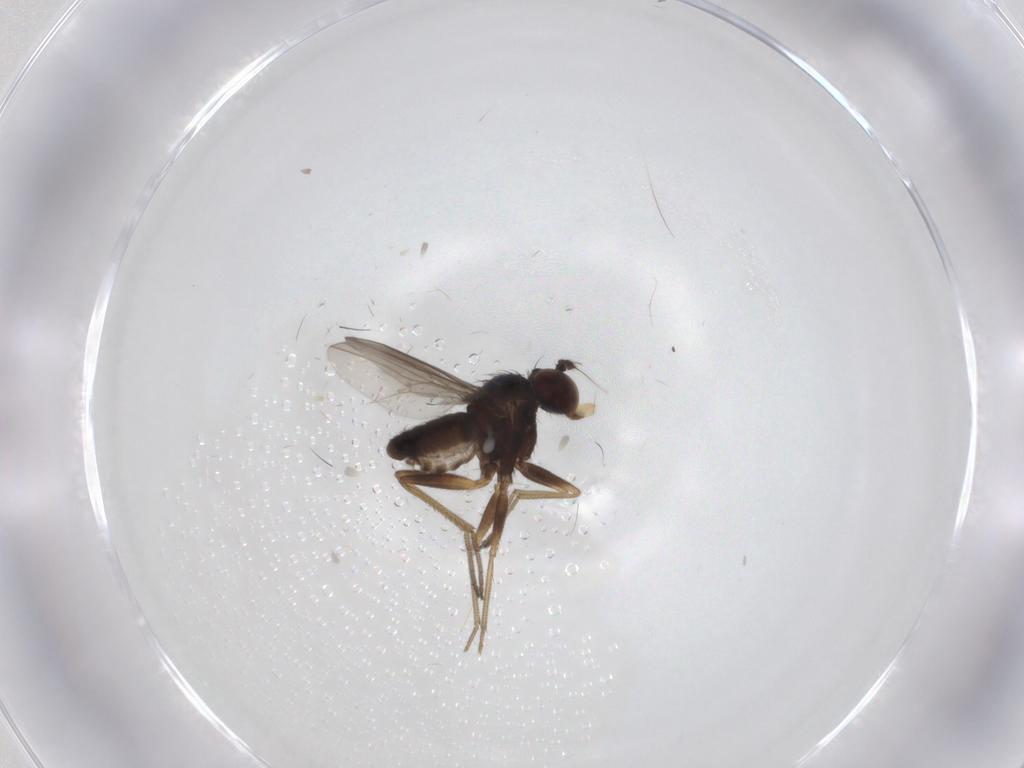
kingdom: Animalia
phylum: Arthropoda
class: Insecta
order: Diptera
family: Dolichopodidae
